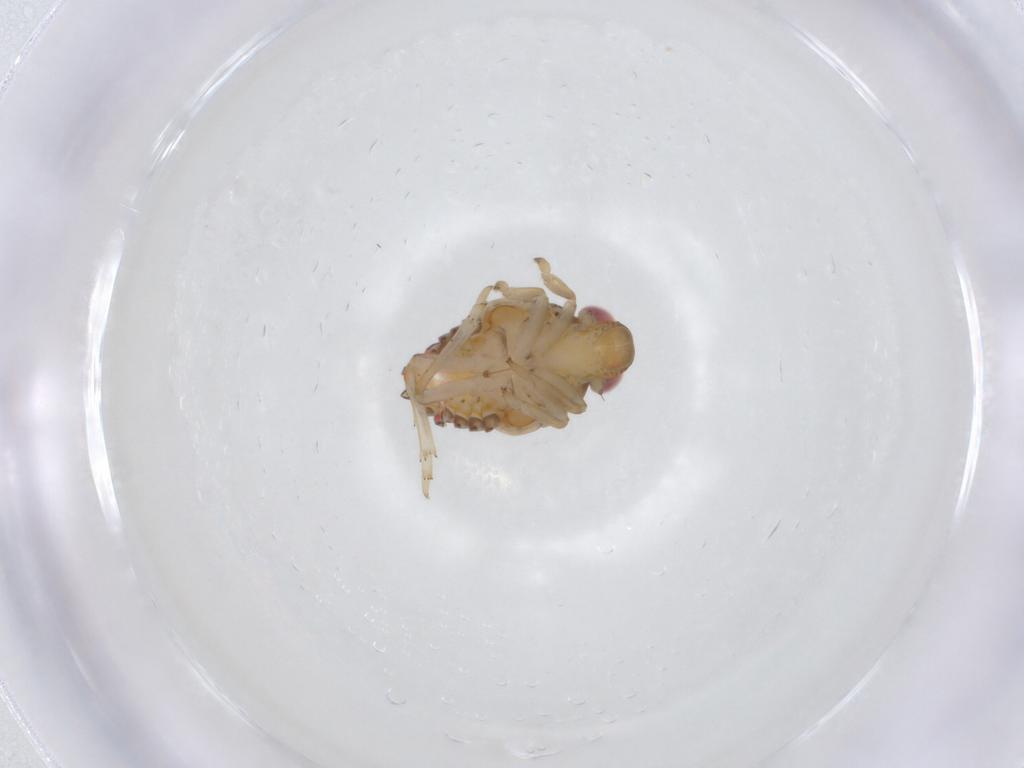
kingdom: Animalia
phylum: Arthropoda
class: Insecta
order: Hemiptera
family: Issidae
